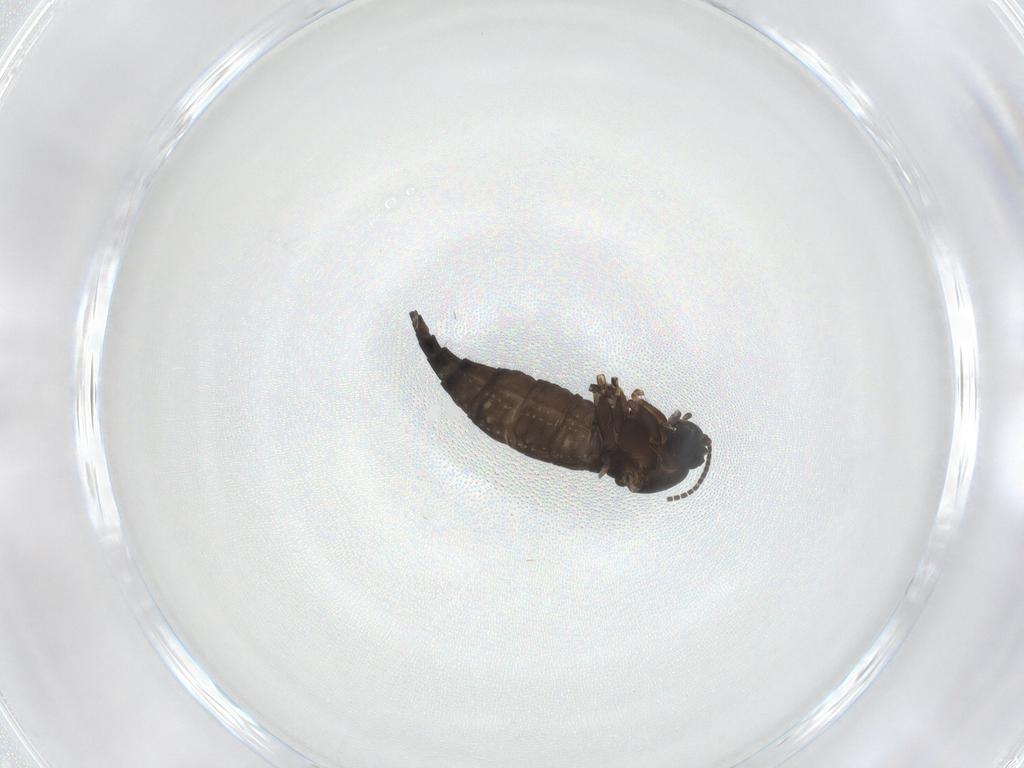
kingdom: Animalia
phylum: Arthropoda
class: Insecta
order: Diptera
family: Sciaridae
